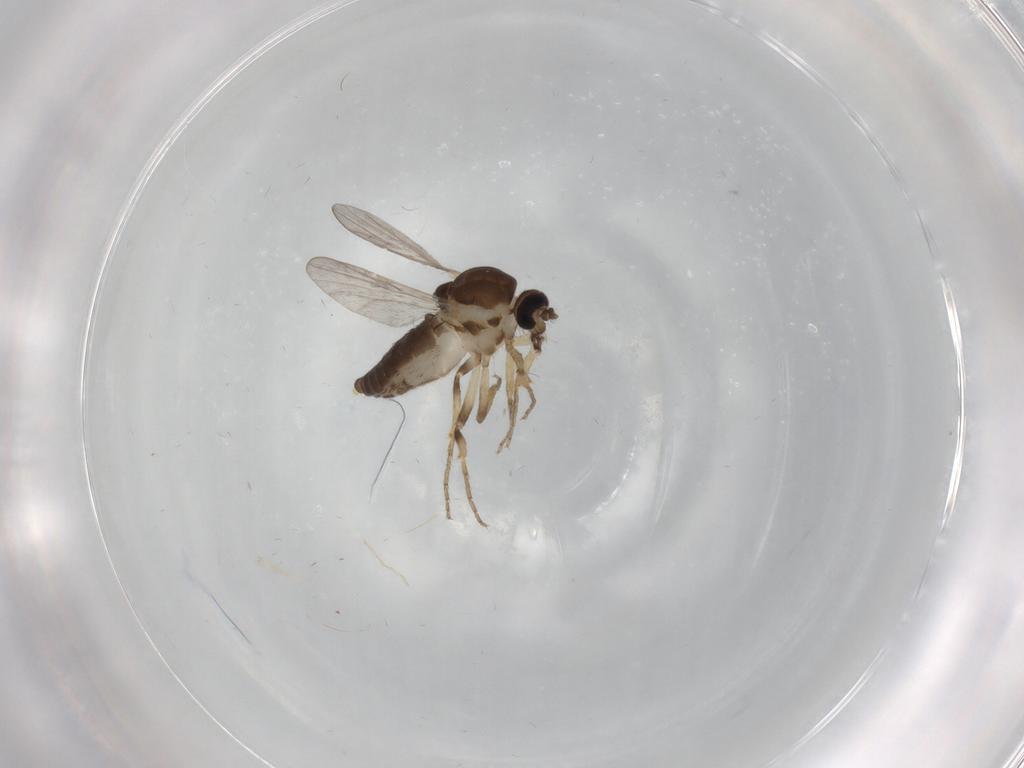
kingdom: Animalia
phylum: Arthropoda
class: Insecta
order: Diptera
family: Ceratopogonidae
